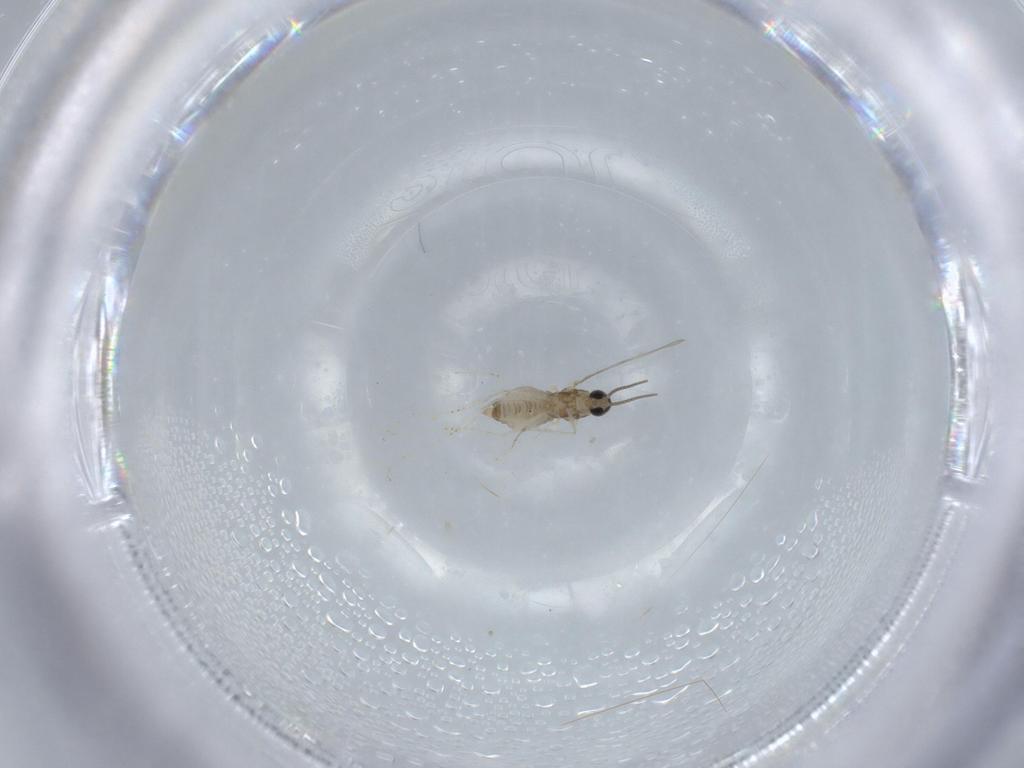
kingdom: Animalia
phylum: Arthropoda
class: Insecta
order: Diptera
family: Cecidomyiidae
